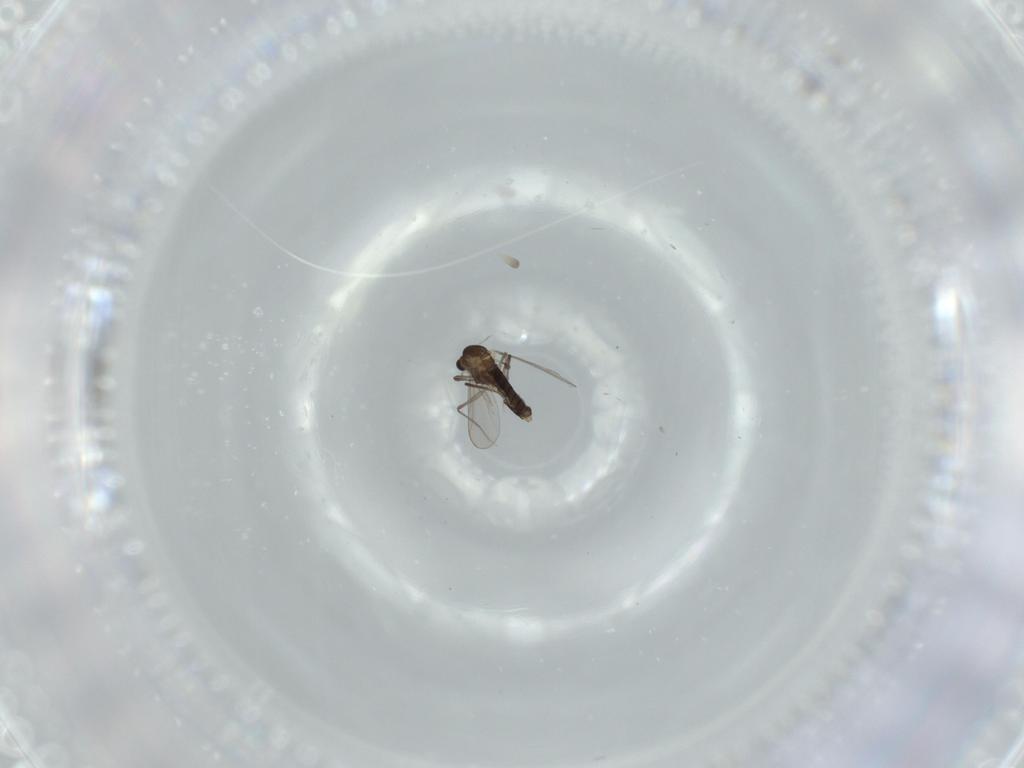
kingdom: Animalia
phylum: Arthropoda
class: Insecta
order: Diptera
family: Chironomidae
